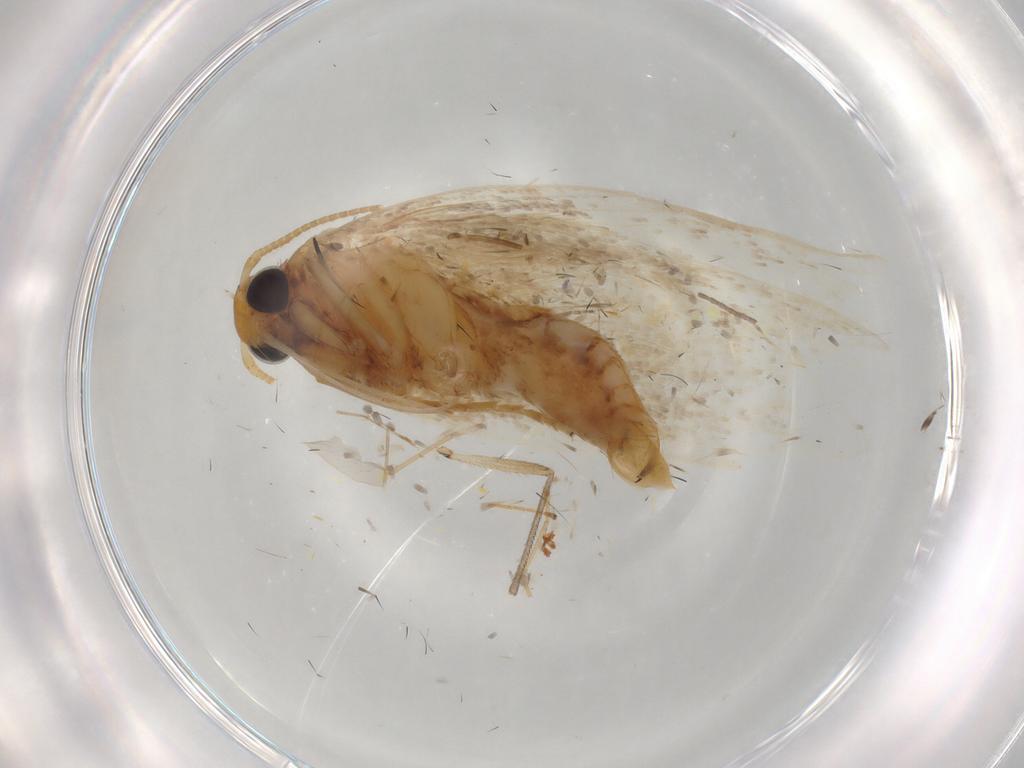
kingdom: Animalia
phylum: Arthropoda
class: Insecta
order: Lepidoptera
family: Gelechiidae
